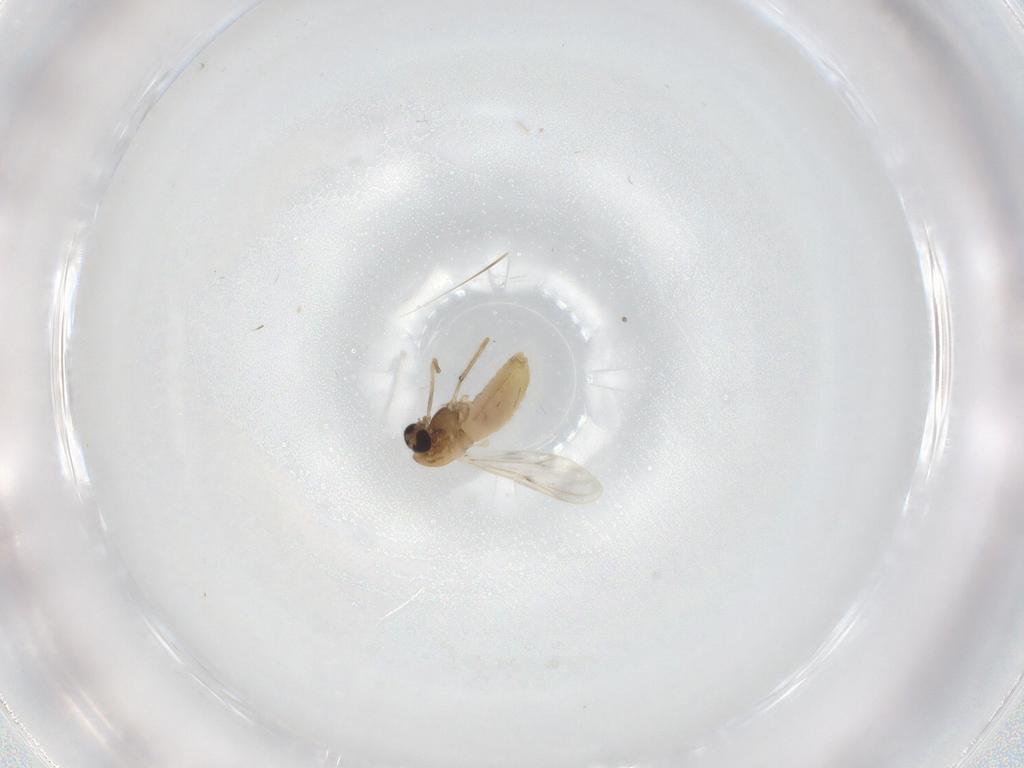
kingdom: Animalia
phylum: Arthropoda
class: Insecta
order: Diptera
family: Chironomidae
